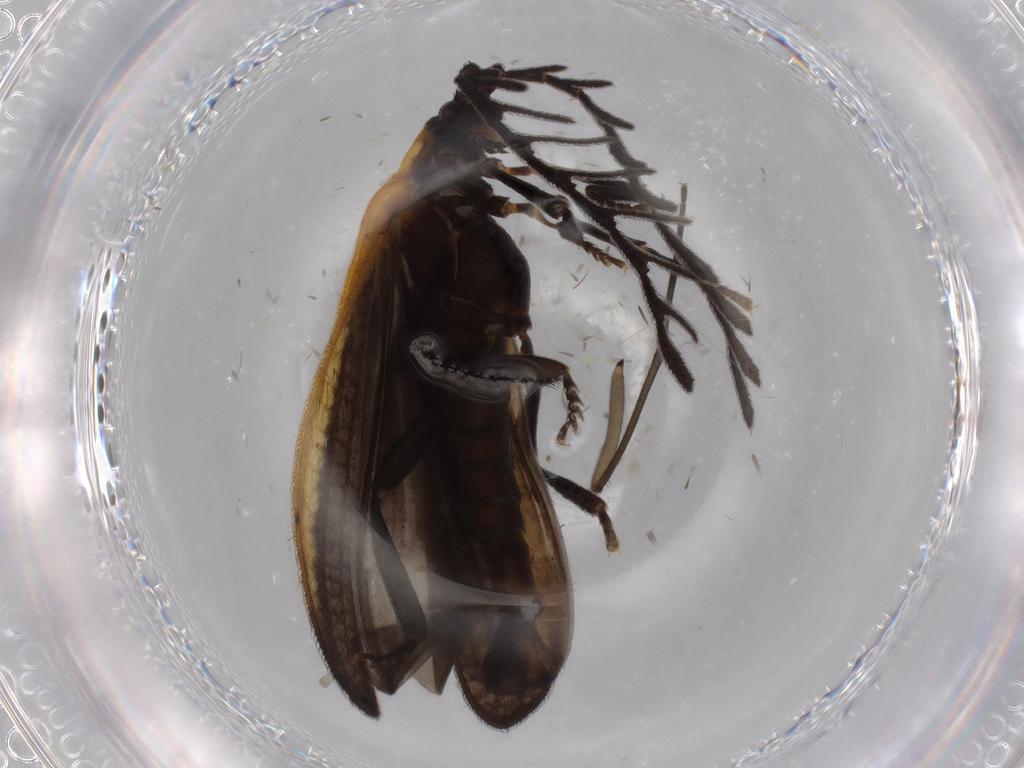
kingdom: Animalia
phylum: Arthropoda
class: Insecta
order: Coleoptera
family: Lycidae
